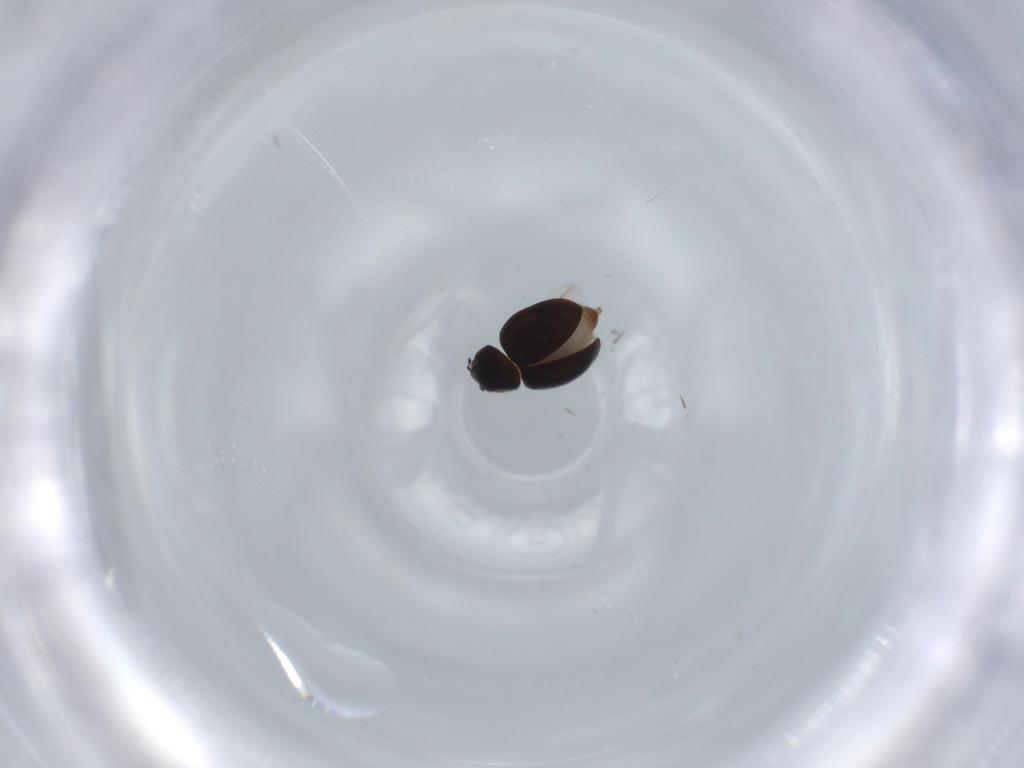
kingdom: Animalia
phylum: Arthropoda
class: Insecta
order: Coleoptera
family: Coccinellidae
